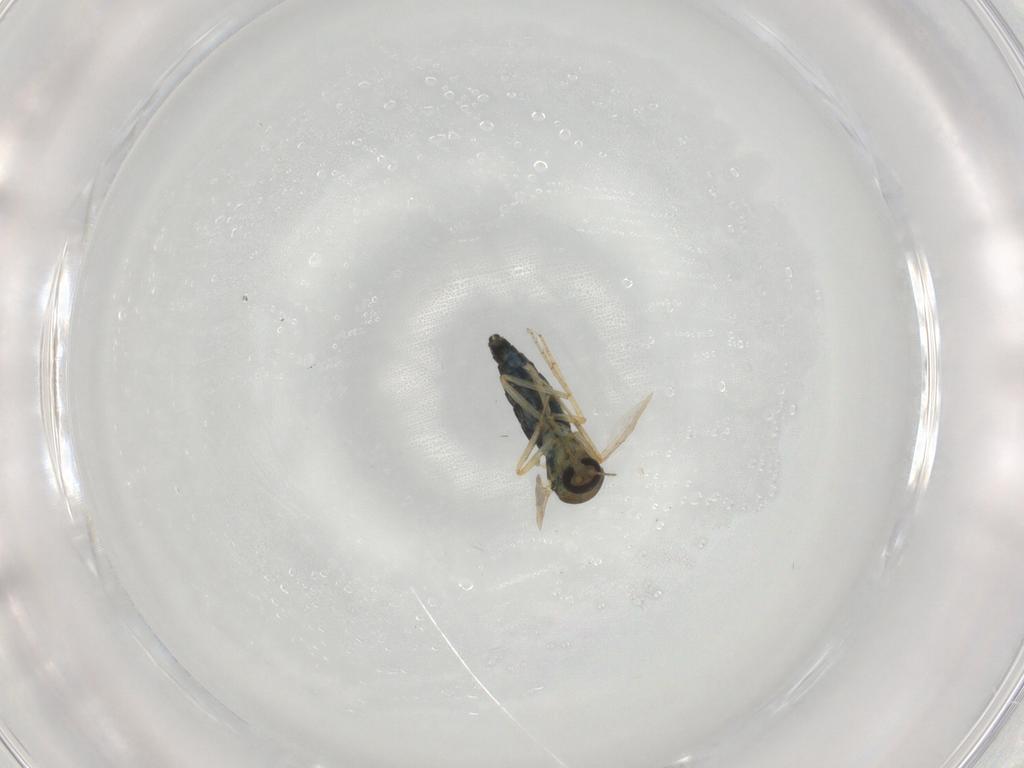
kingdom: Animalia
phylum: Arthropoda
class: Insecta
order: Diptera
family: Ceratopogonidae
